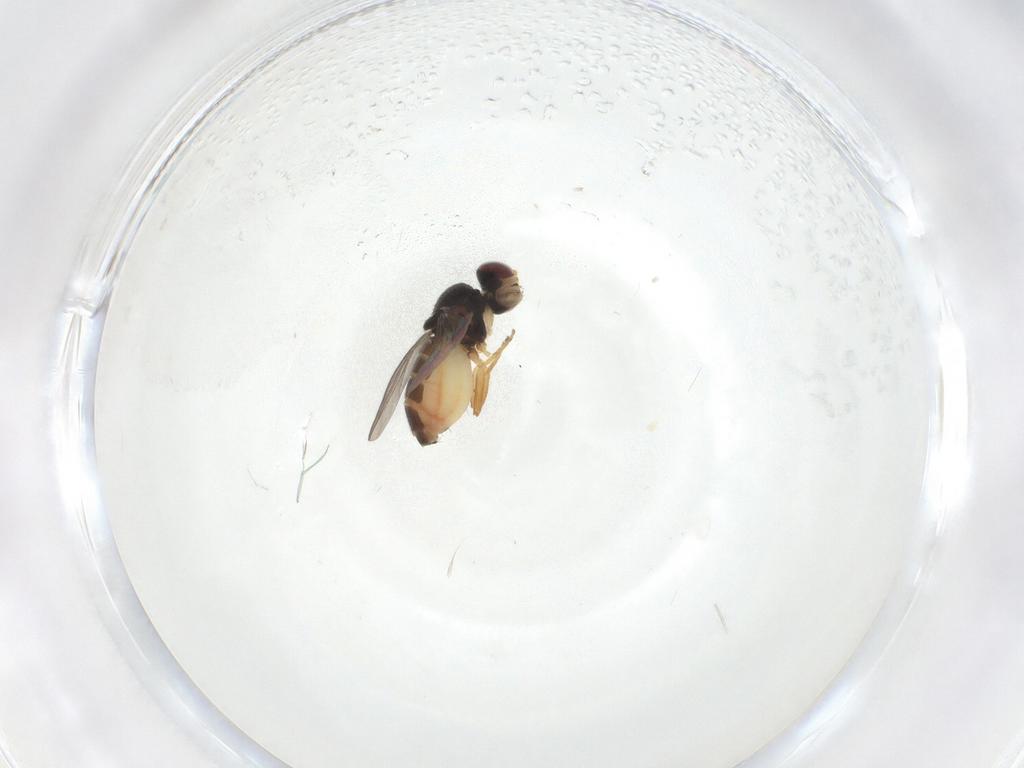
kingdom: Animalia
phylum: Arthropoda
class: Insecta
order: Diptera
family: Chloropidae
